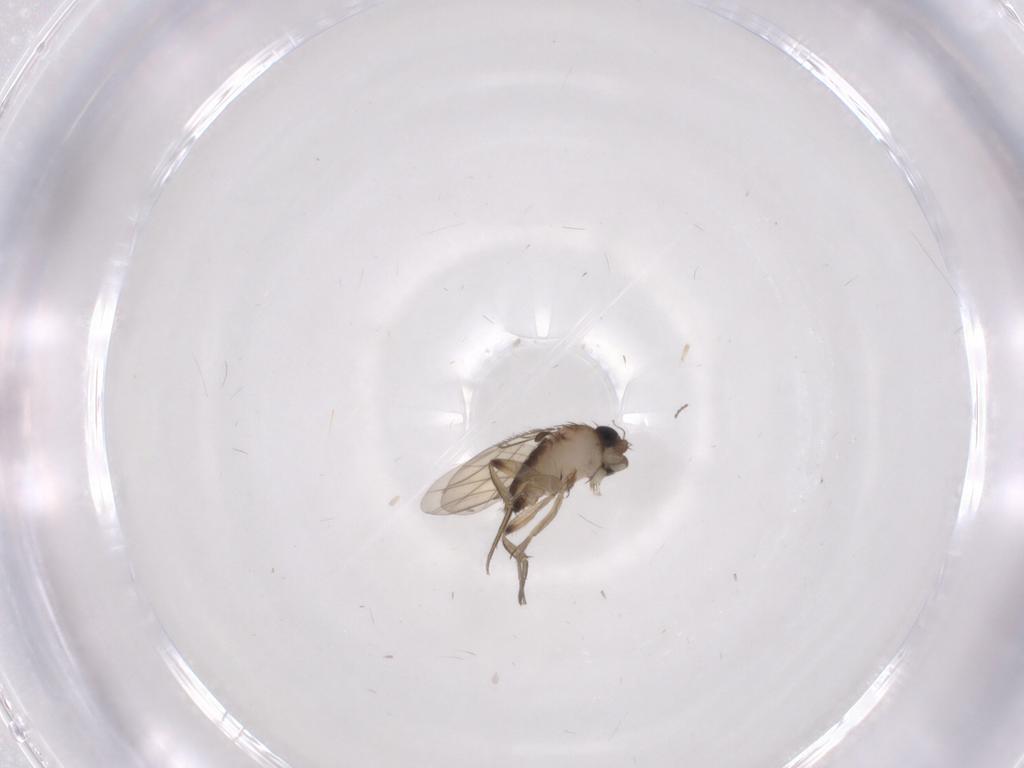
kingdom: Animalia
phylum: Arthropoda
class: Insecta
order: Diptera
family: Phoridae
